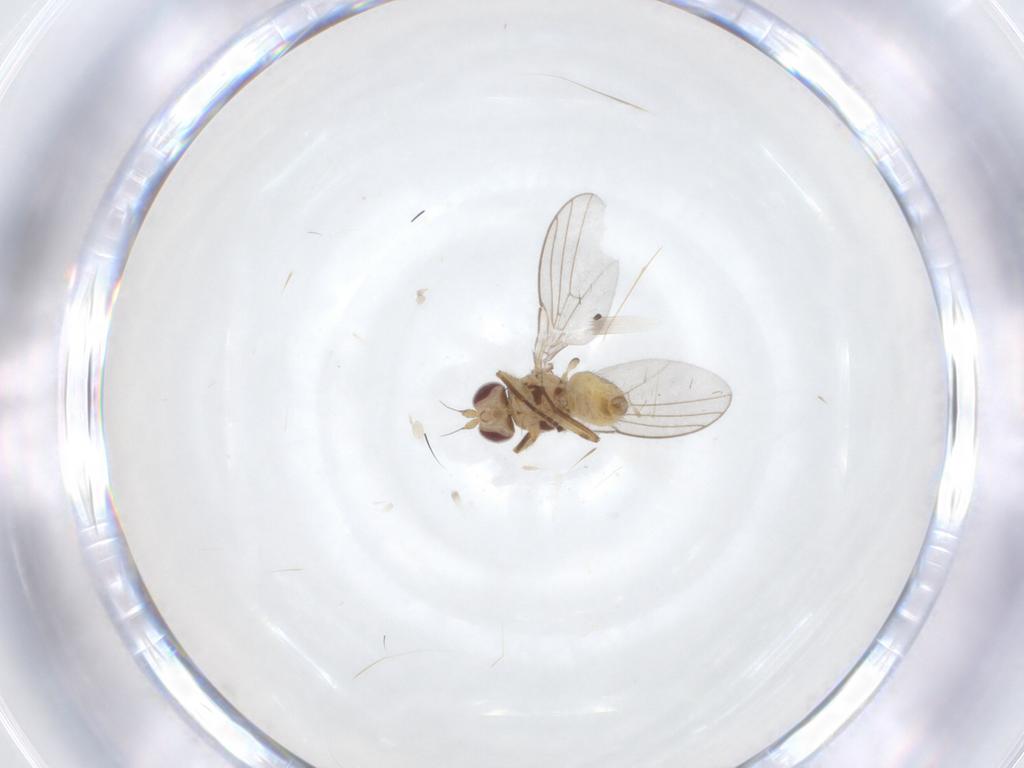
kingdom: Animalia
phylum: Arthropoda
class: Insecta
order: Diptera
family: Agromyzidae
